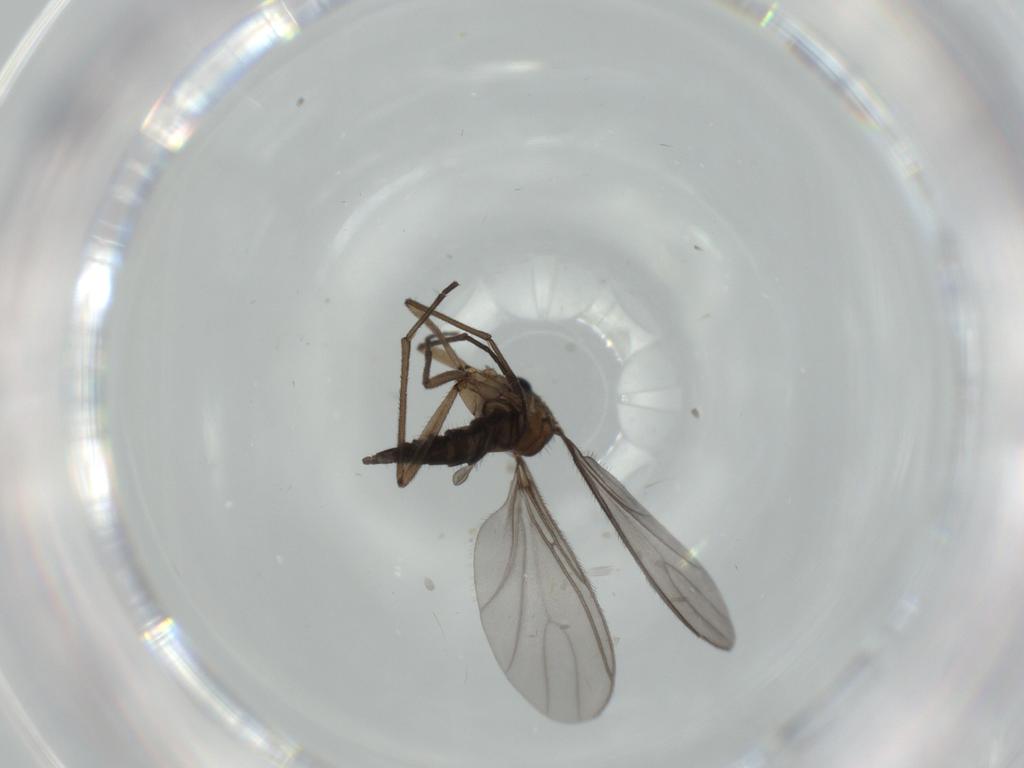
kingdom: Animalia
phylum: Arthropoda
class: Insecta
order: Diptera
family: Sciaridae
